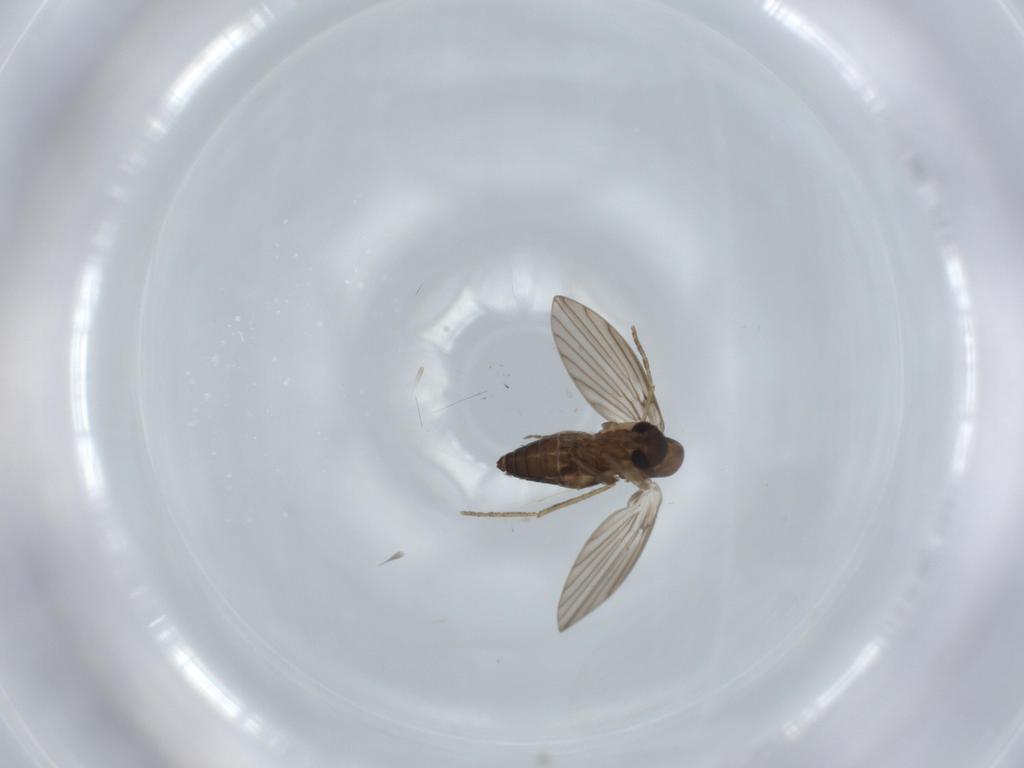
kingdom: Animalia
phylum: Arthropoda
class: Insecta
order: Diptera
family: Psychodidae
